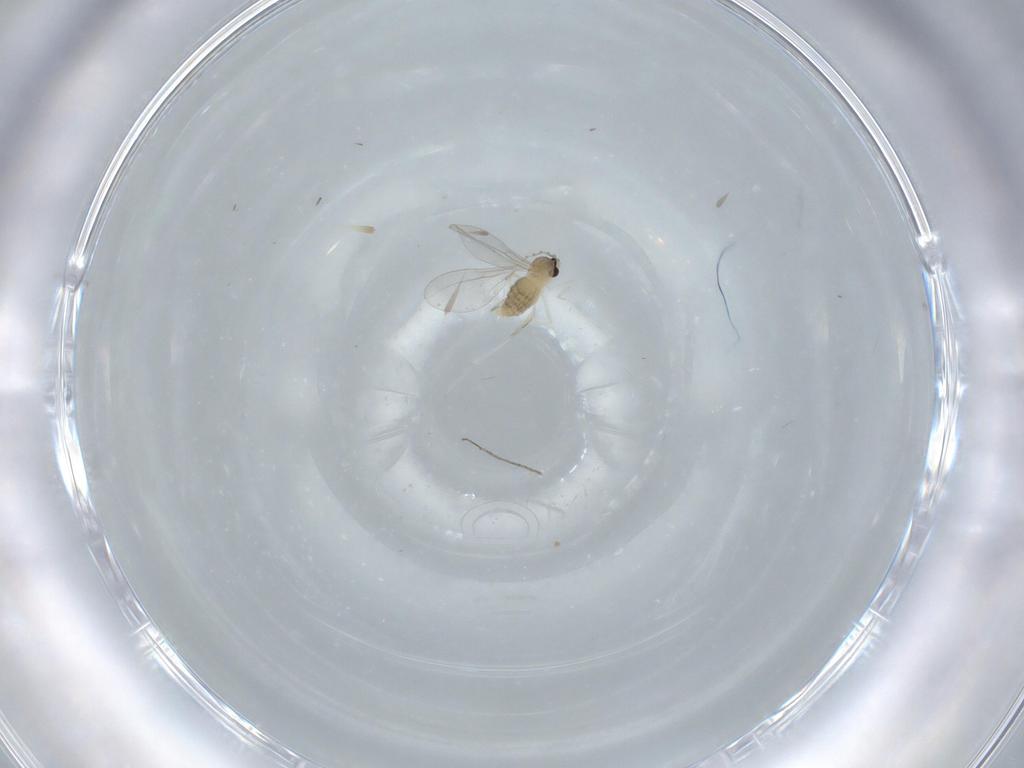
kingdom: Animalia
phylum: Arthropoda
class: Insecta
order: Diptera
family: Cecidomyiidae
